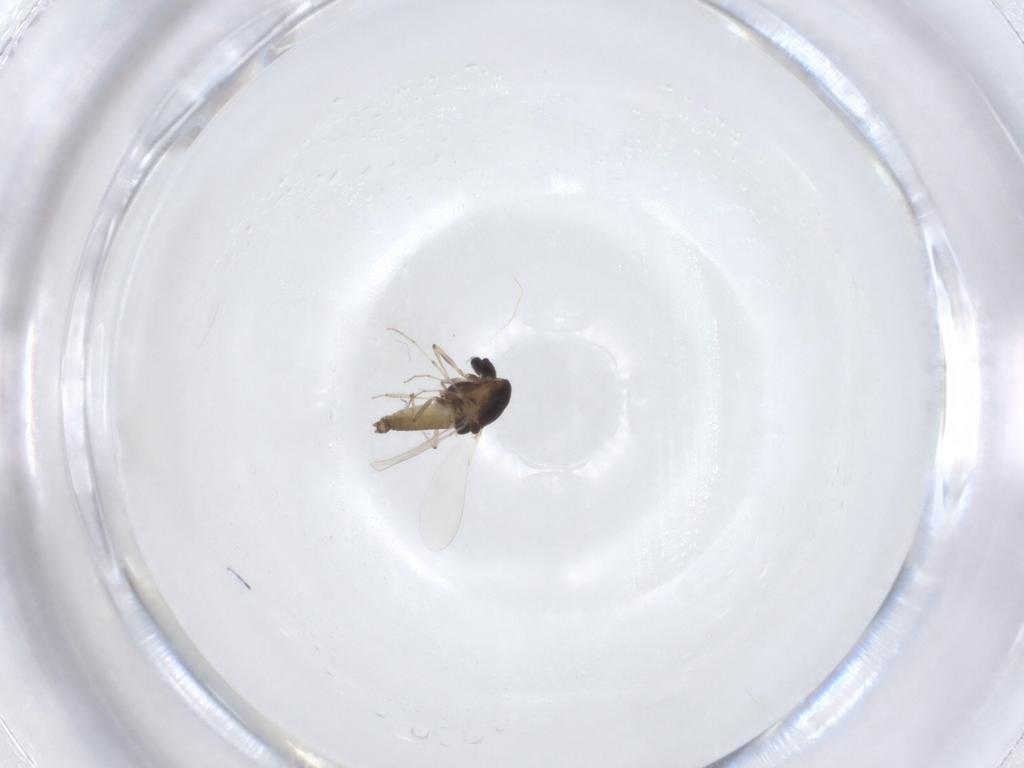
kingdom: Animalia
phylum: Arthropoda
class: Insecta
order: Diptera
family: Chironomidae
